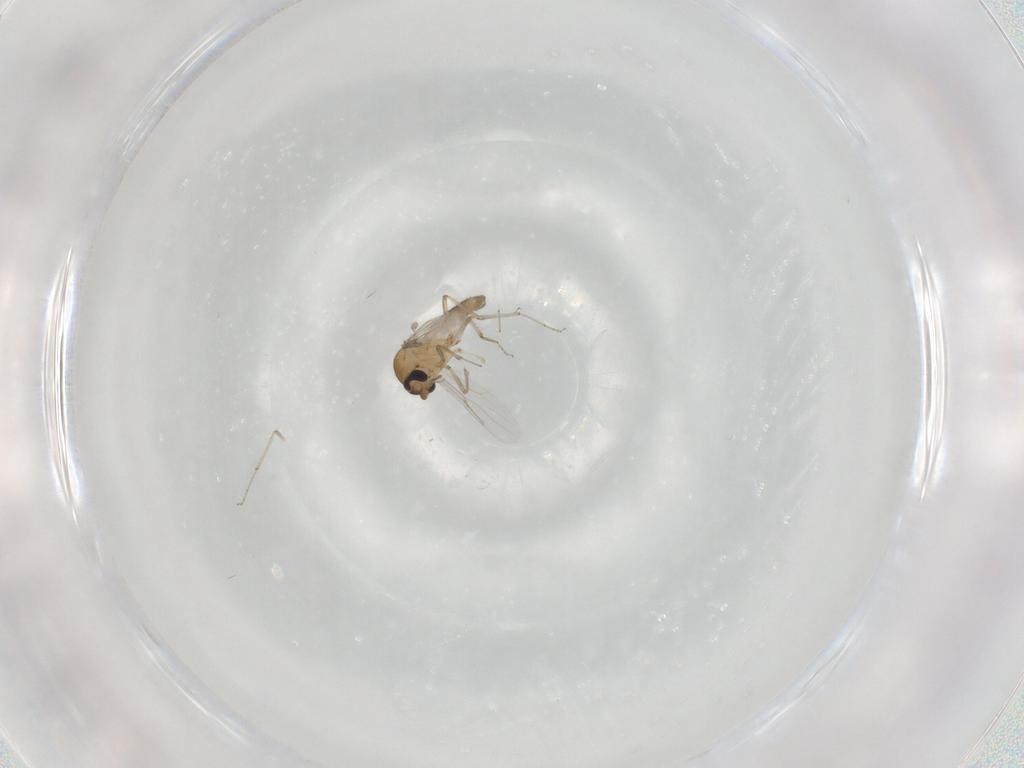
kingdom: Animalia
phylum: Arthropoda
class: Insecta
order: Diptera
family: Ceratopogonidae
